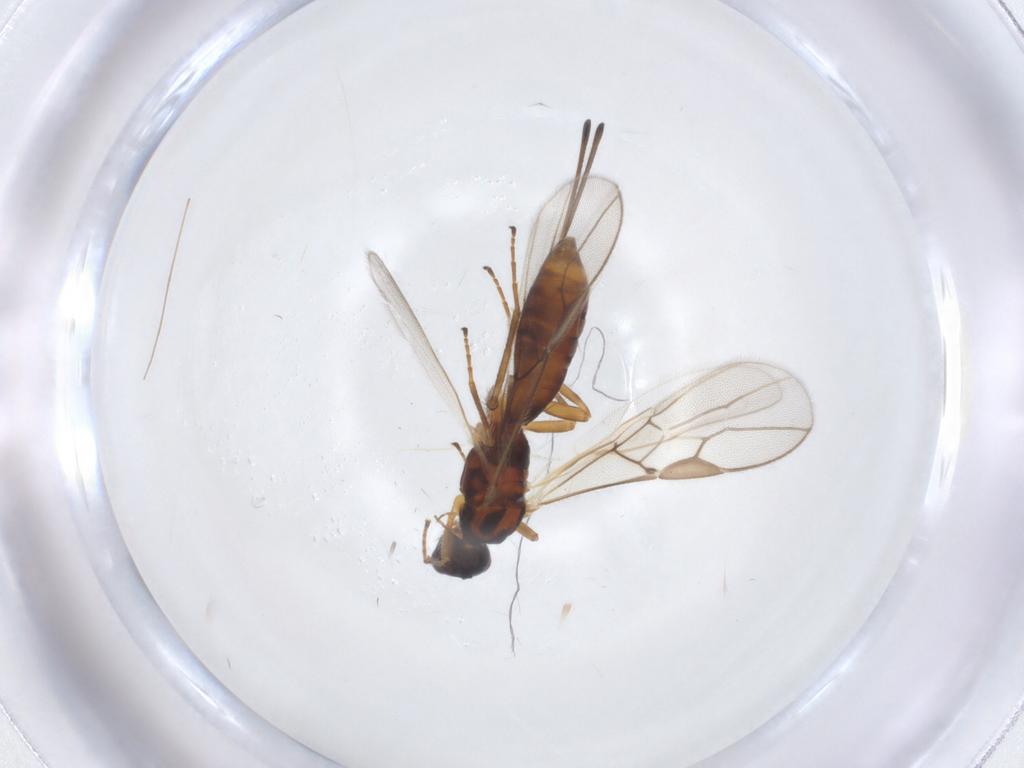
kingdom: Animalia
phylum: Arthropoda
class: Insecta
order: Hymenoptera
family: Braconidae
